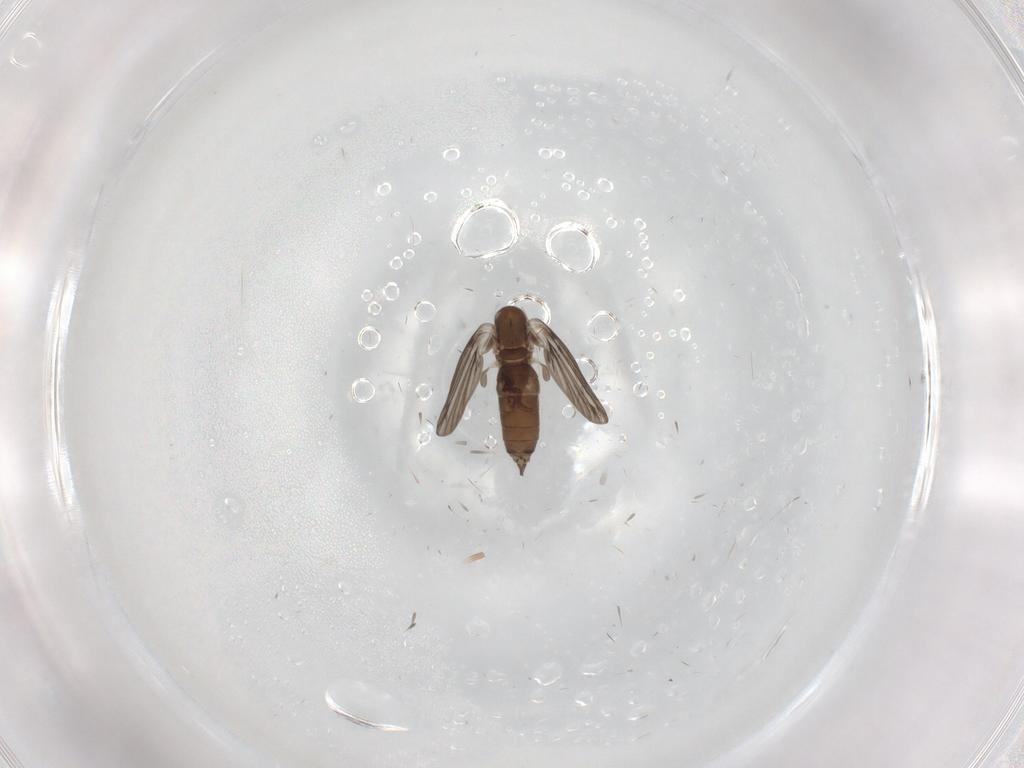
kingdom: Animalia
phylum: Arthropoda
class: Insecta
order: Diptera
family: Sciaridae
